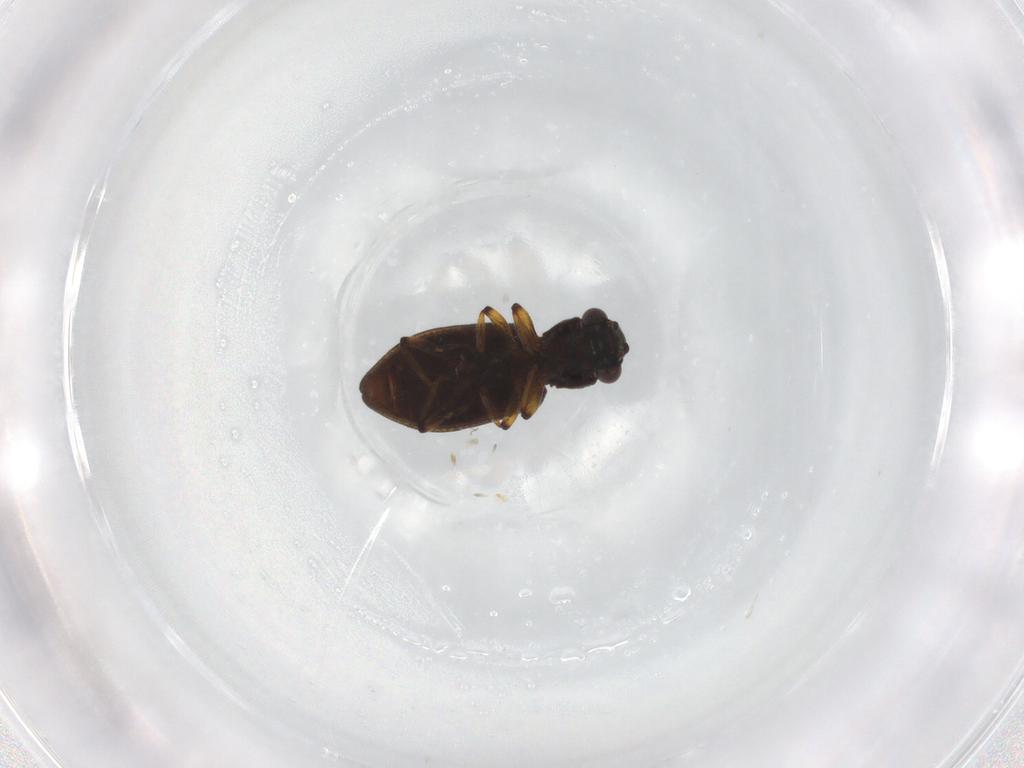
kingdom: Animalia
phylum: Arthropoda
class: Insecta
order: Coleoptera
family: Hydrophilidae
